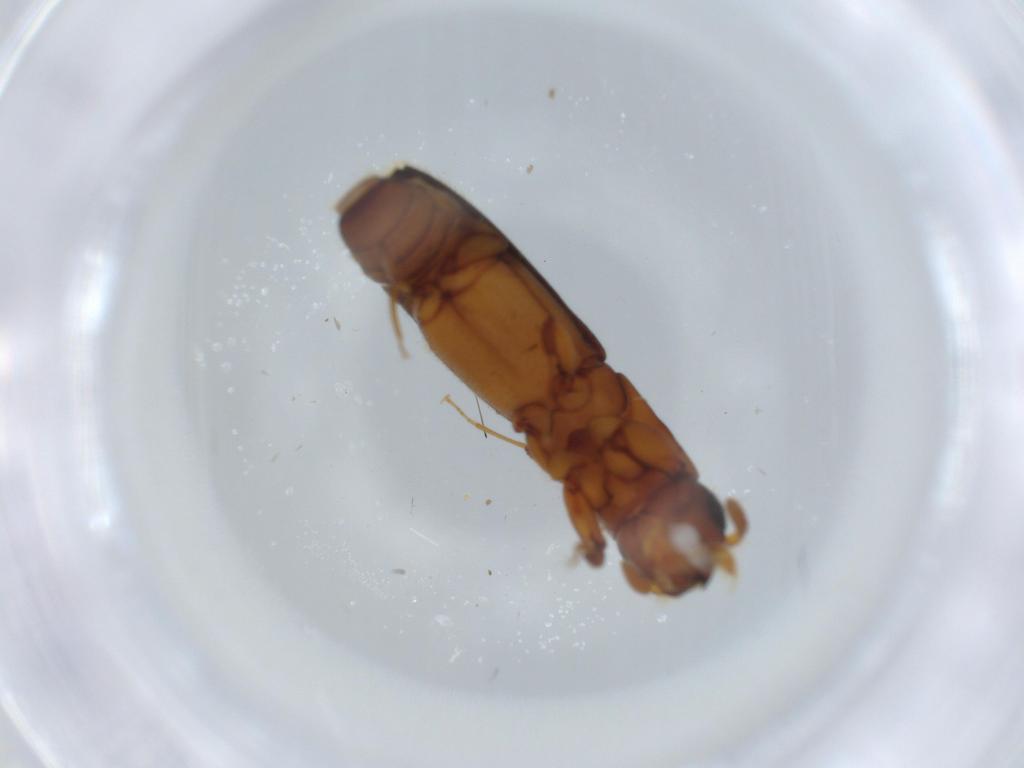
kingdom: Animalia
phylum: Arthropoda
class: Insecta
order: Coleoptera
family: Curculionidae
